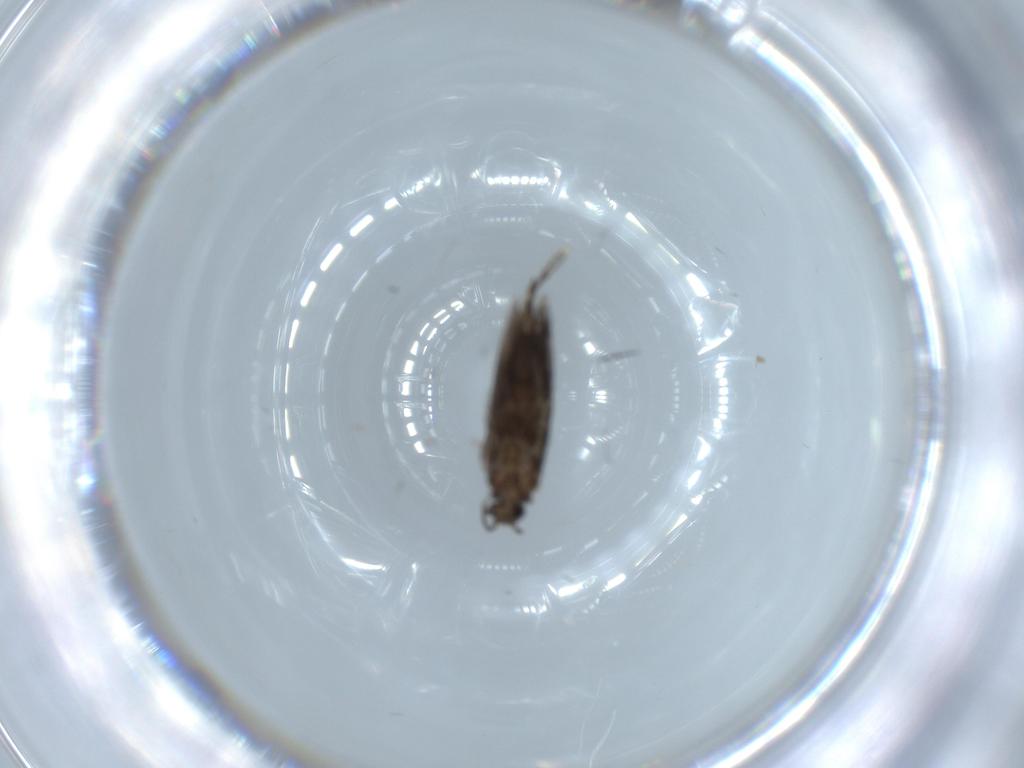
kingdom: Animalia
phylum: Arthropoda
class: Insecta
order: Trichoptera
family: Hydroptilidae
